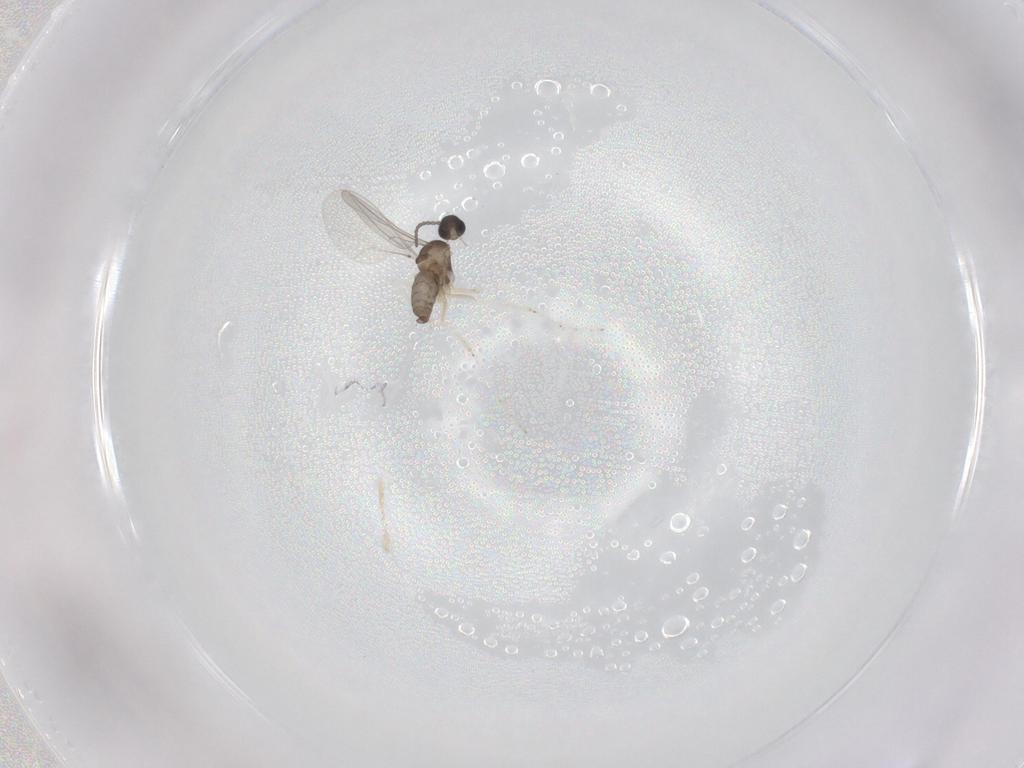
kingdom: Animalia
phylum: Arthropoda
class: Insecta
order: Diptera
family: Cecidomyiidae
